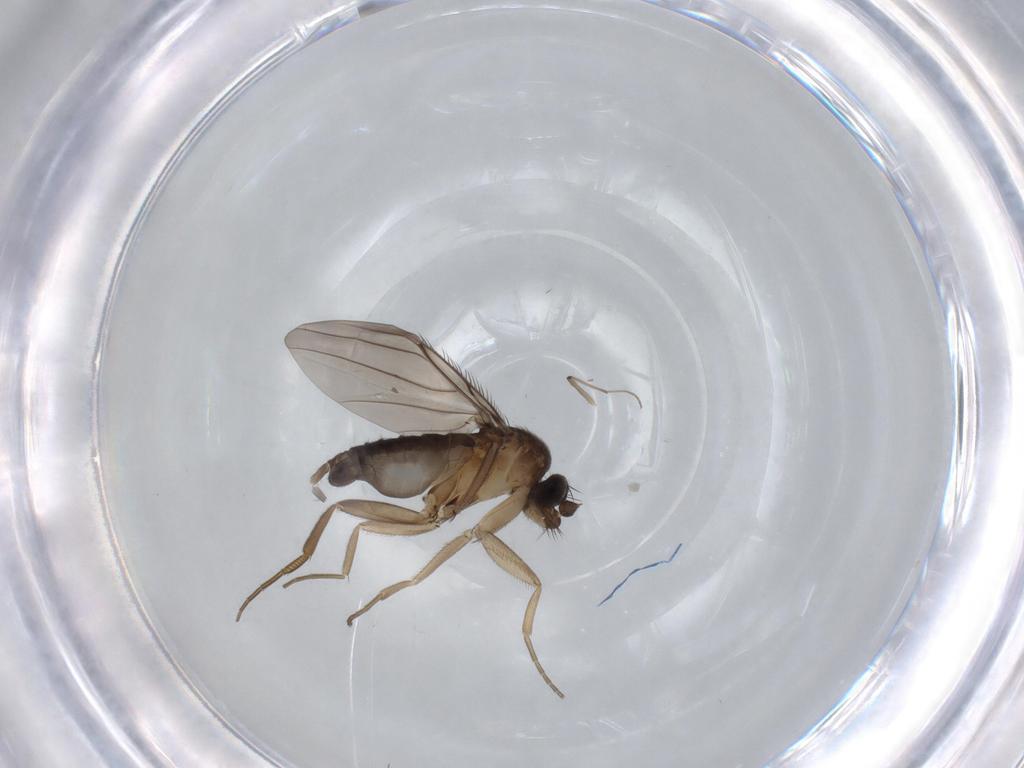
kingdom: Animalia
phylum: Arthropoda
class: Insecta
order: Diptera
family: Phoridae
